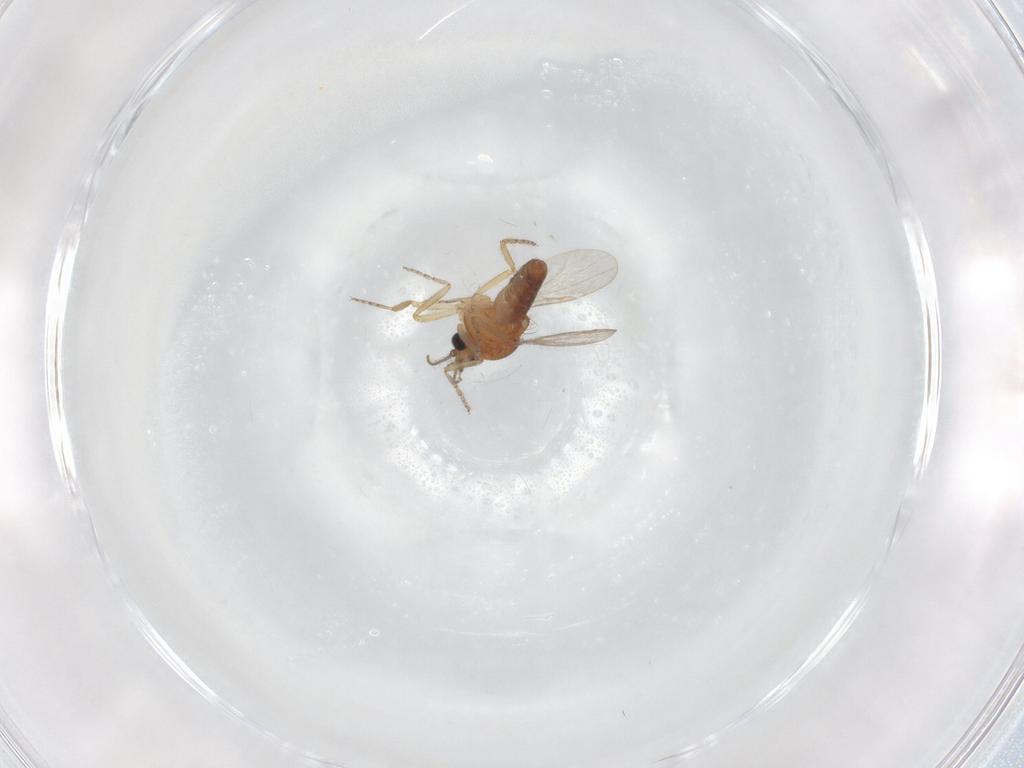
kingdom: Animalia
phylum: Arthropoda
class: Insecta
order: Diptera
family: Ceratopogonidae
